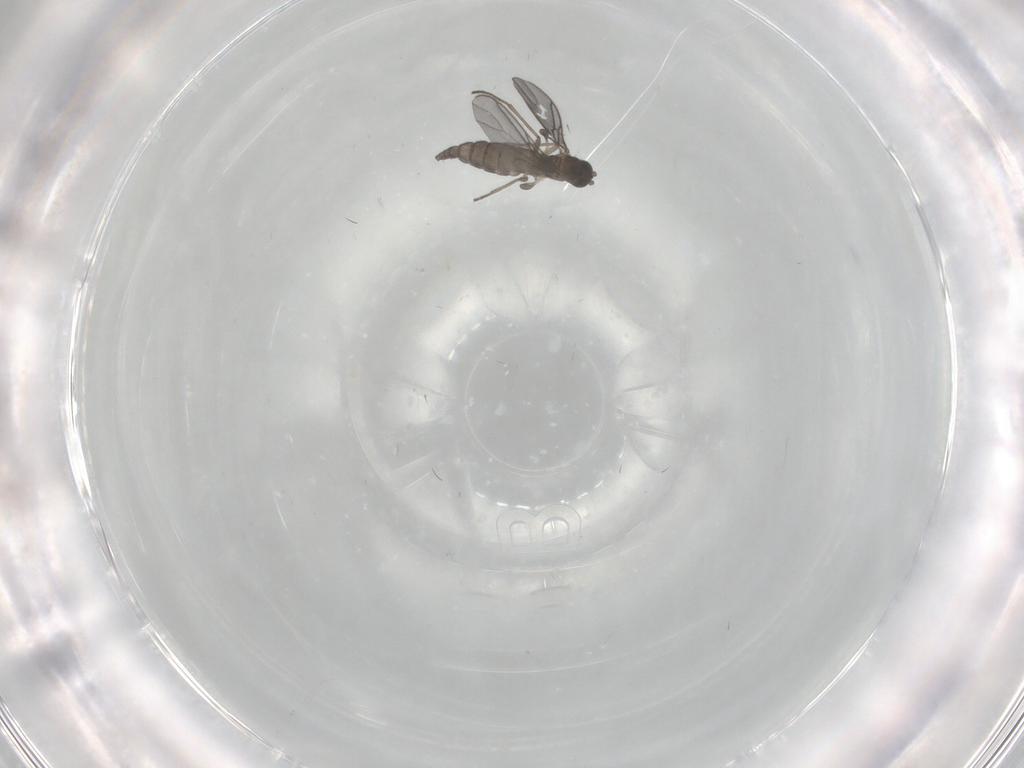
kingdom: Animalia
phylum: Arthropoda
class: Insecta
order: Diptera
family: Sciaridae
